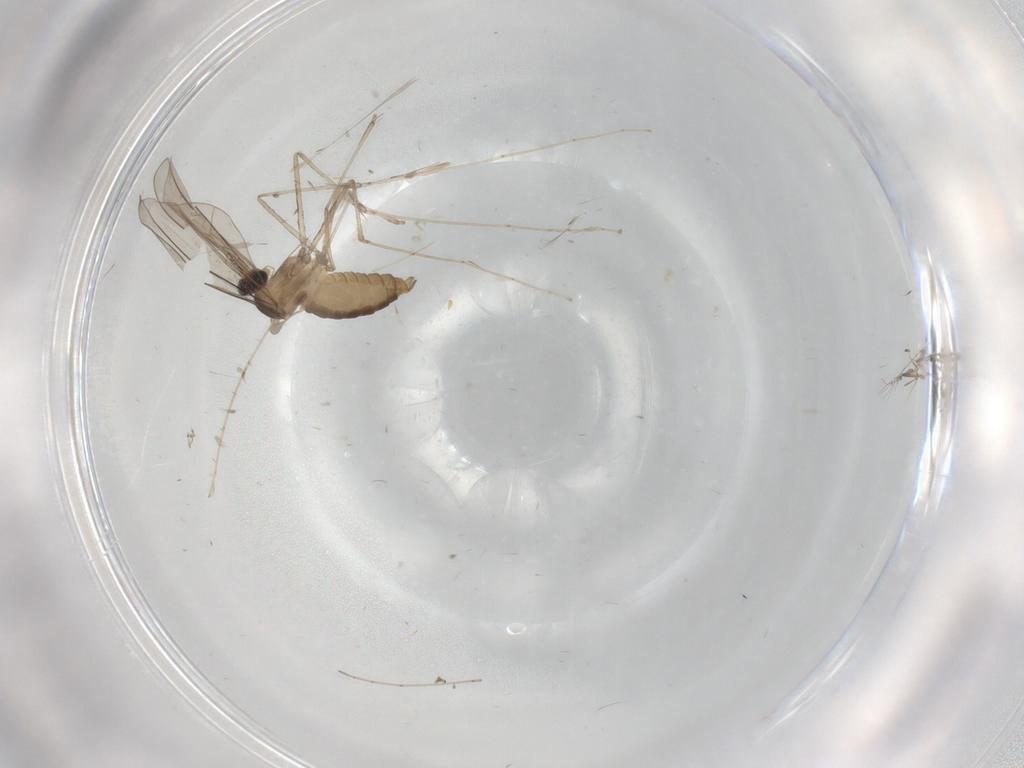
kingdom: Animalia
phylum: Arthropoda
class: Insecta
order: Diptera
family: Cecidomyiidae
